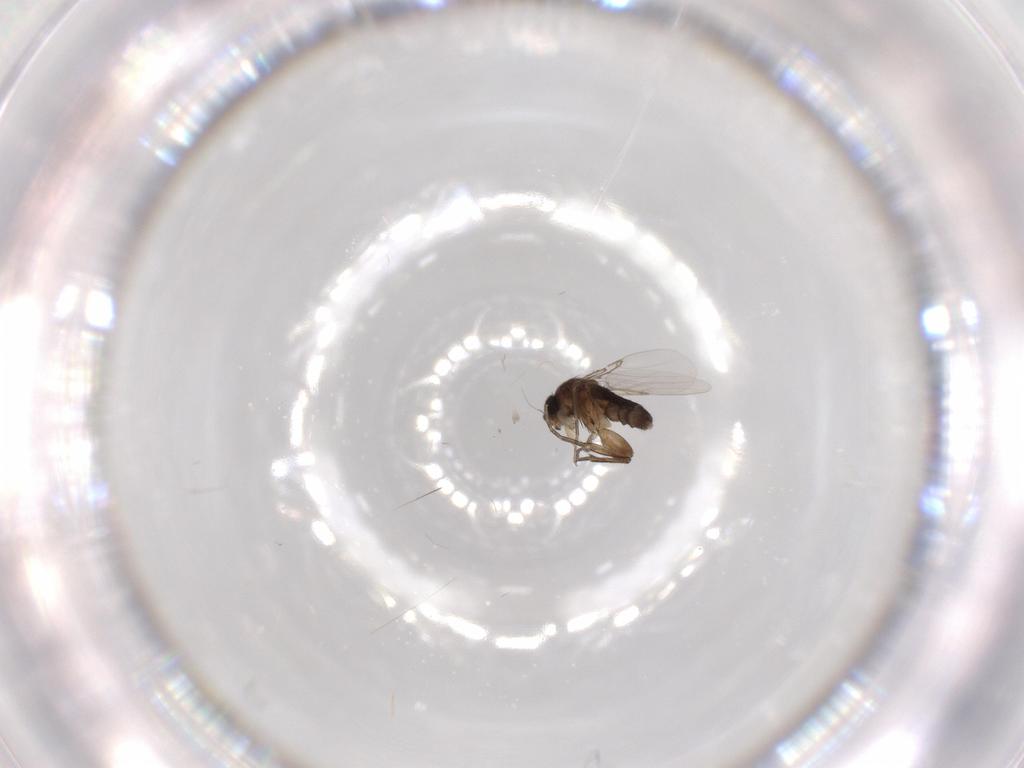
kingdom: Animalia
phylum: Arthropoda
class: Insecta
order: Diptera
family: Phoridae
